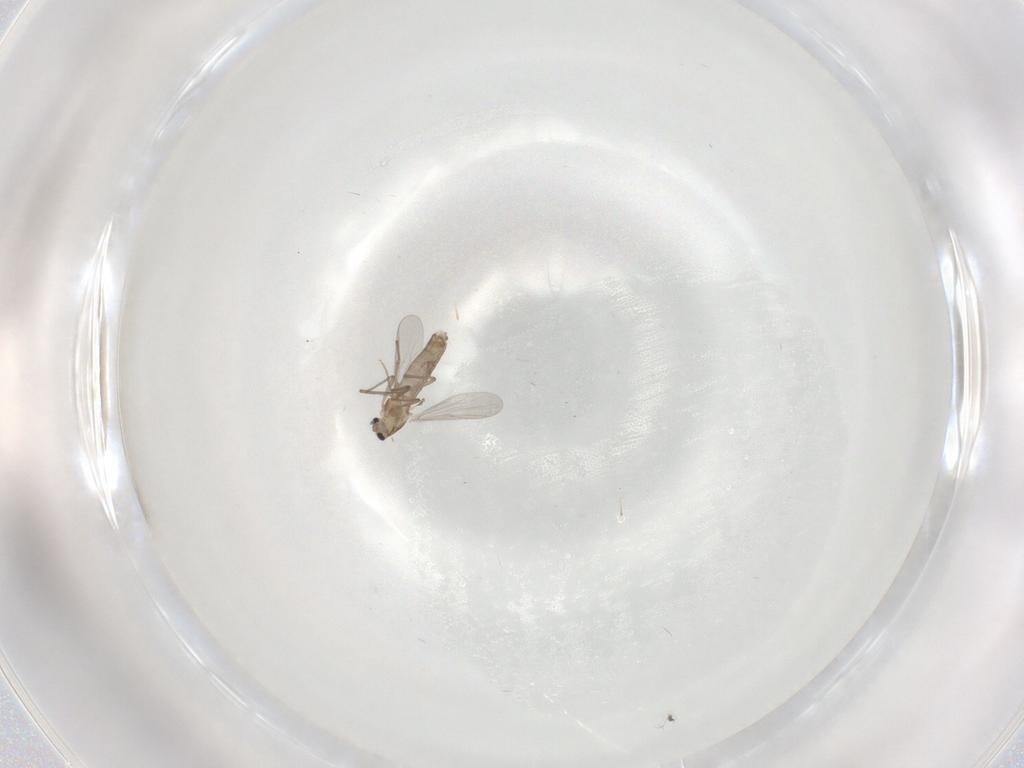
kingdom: Animalia
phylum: Arthropoda
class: Insecta
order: Diptera
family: Chironomidae
